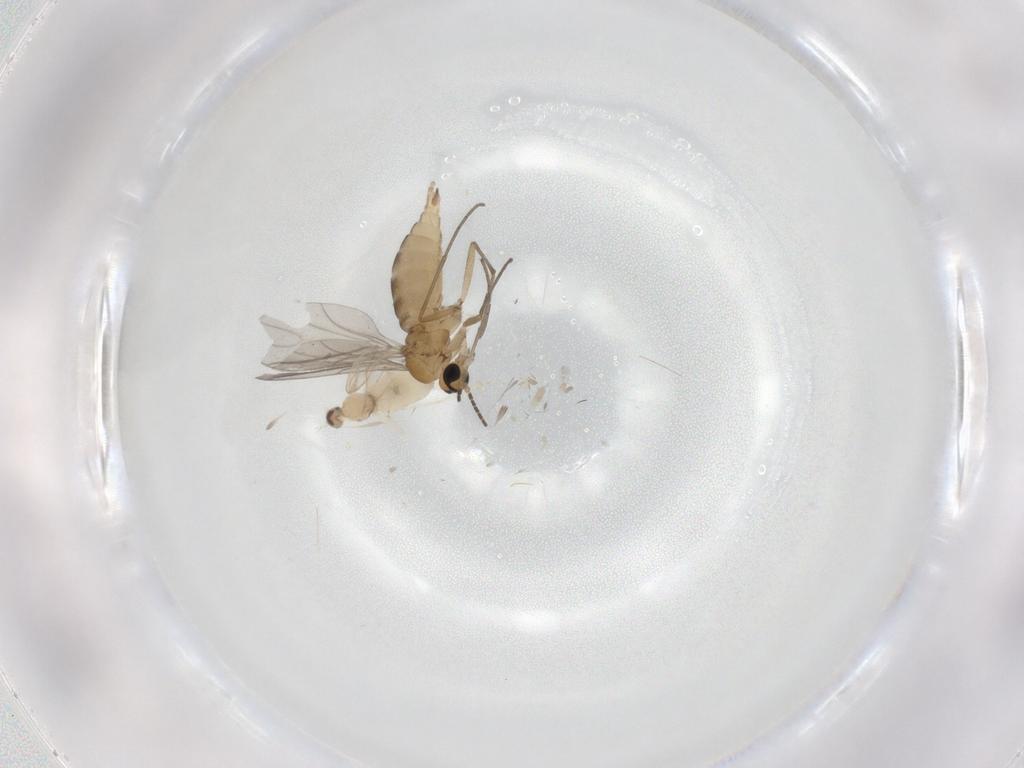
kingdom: Animalia
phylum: Arthropoda
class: Insecta
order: Diptera
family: Sciaridae
